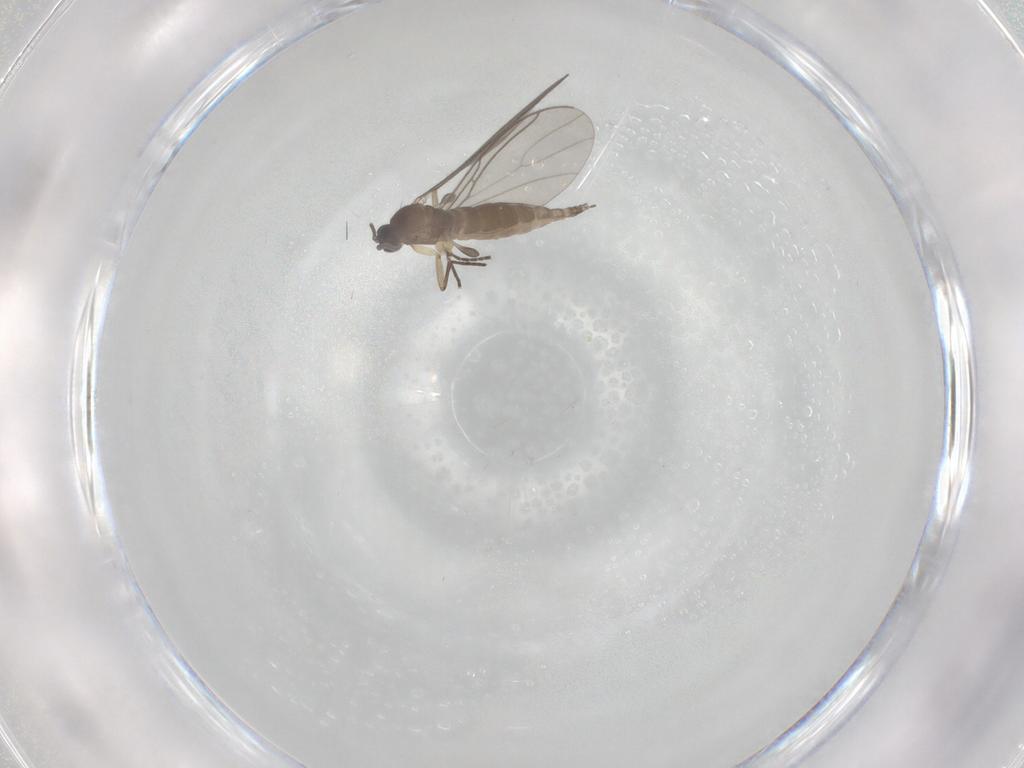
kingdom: Animalia
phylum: Arthropoda
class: Insecta
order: Diptera
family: Sciaridae
